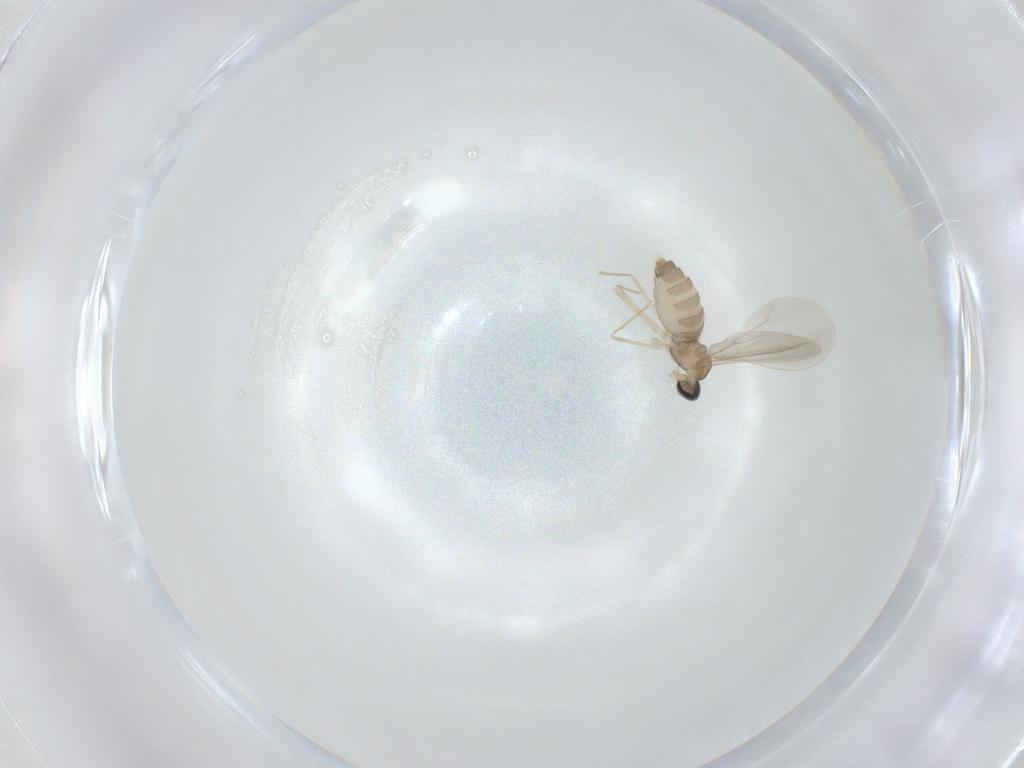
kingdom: Animalia
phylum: Arthropoda
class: Insecta
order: Diptera
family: Cecidomyiidae
